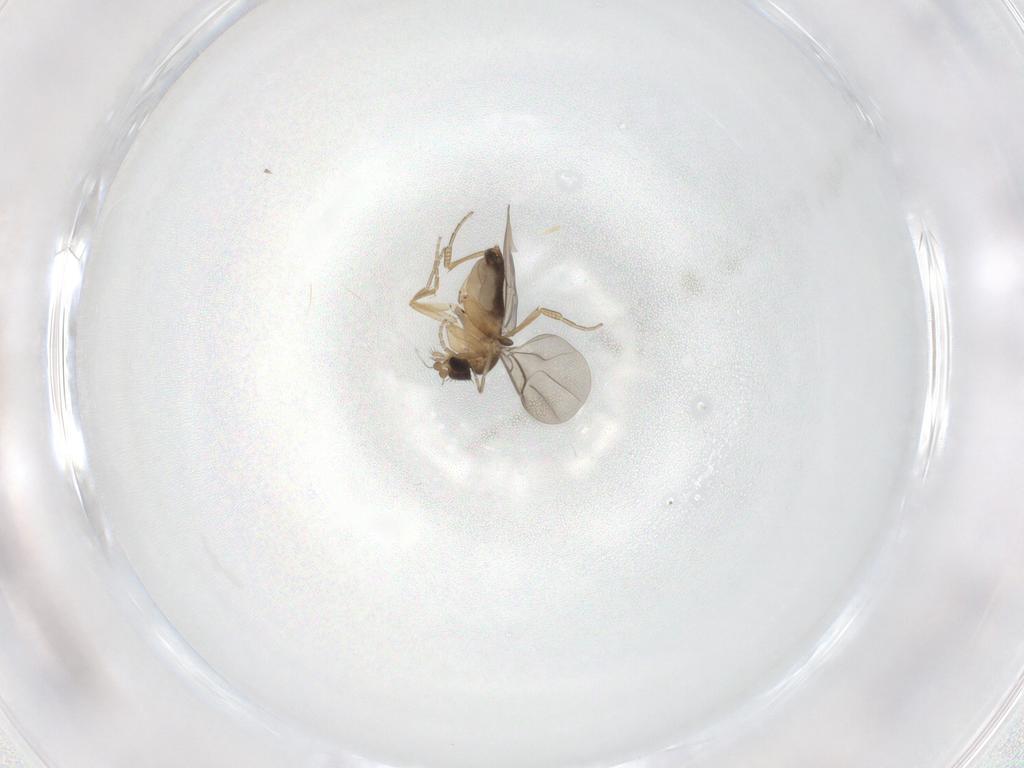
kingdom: Animalia
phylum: Arthropoda
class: Insecta
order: Diptera
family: Phoridae
